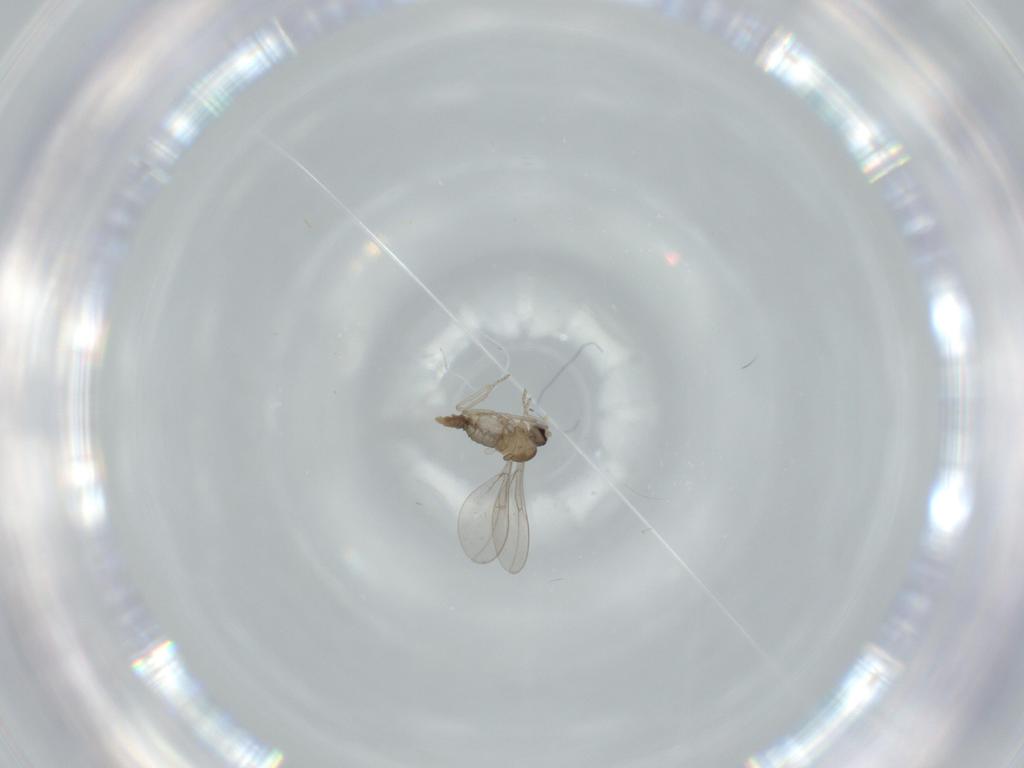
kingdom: Animalia
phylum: Arthropoda
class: Insecta
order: Diptera
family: Cecidomyiidae
